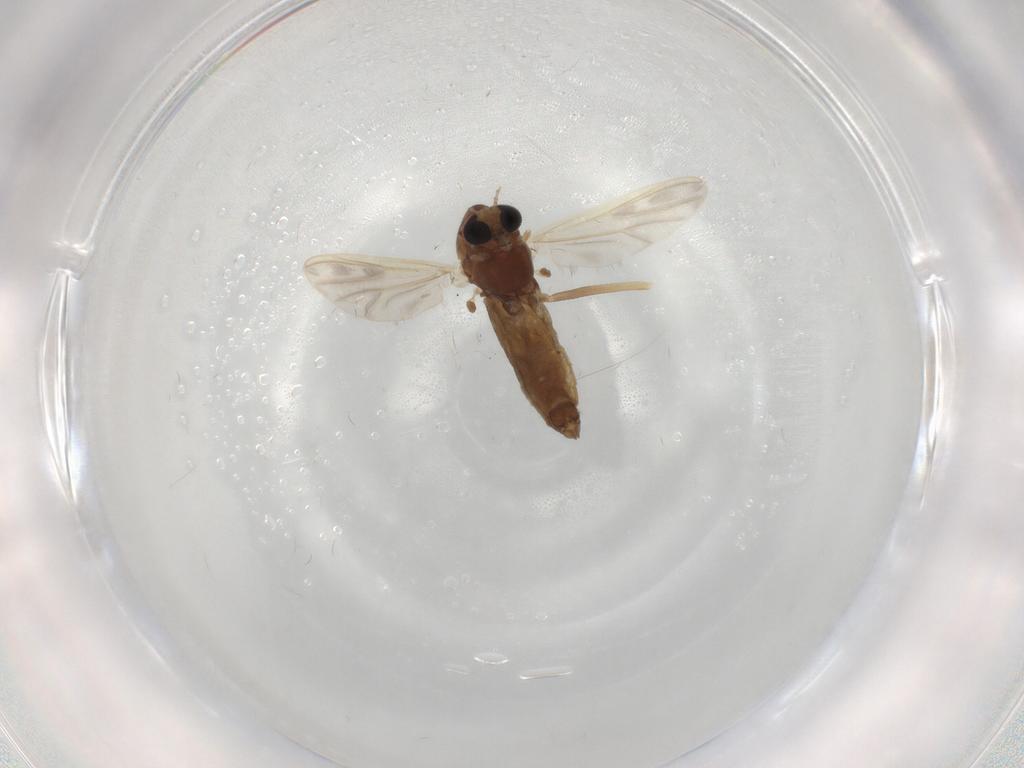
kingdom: Animalia
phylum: Arthropoda
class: Insecta
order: Diptera
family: Chironomidae
